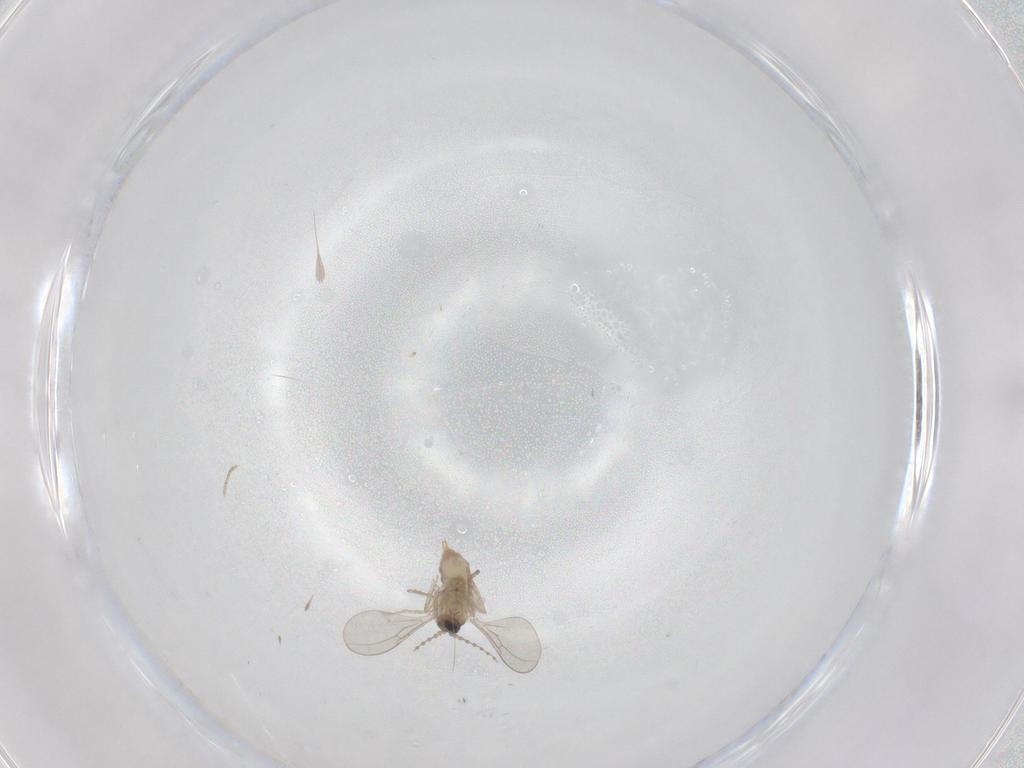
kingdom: Animalia
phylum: Arthropoda
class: Insecta
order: Diptera
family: Cecidomyiidae
